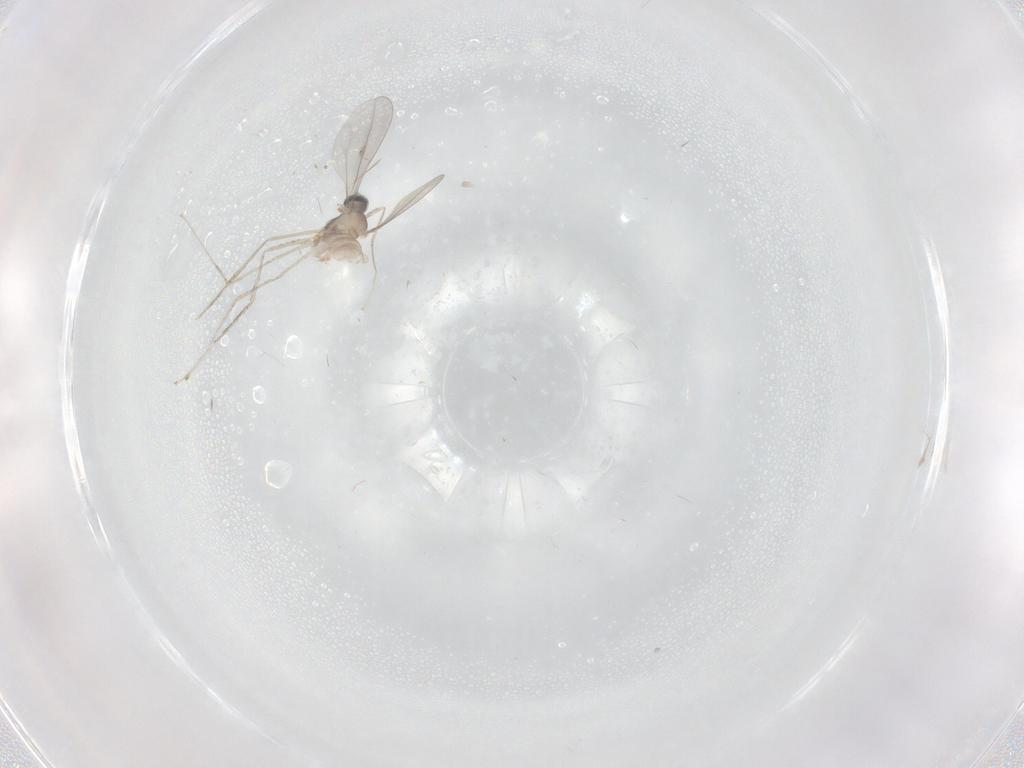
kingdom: Animalia
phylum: Arthropoda
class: Insecta
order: Diptera
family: Cecidomyiidae
